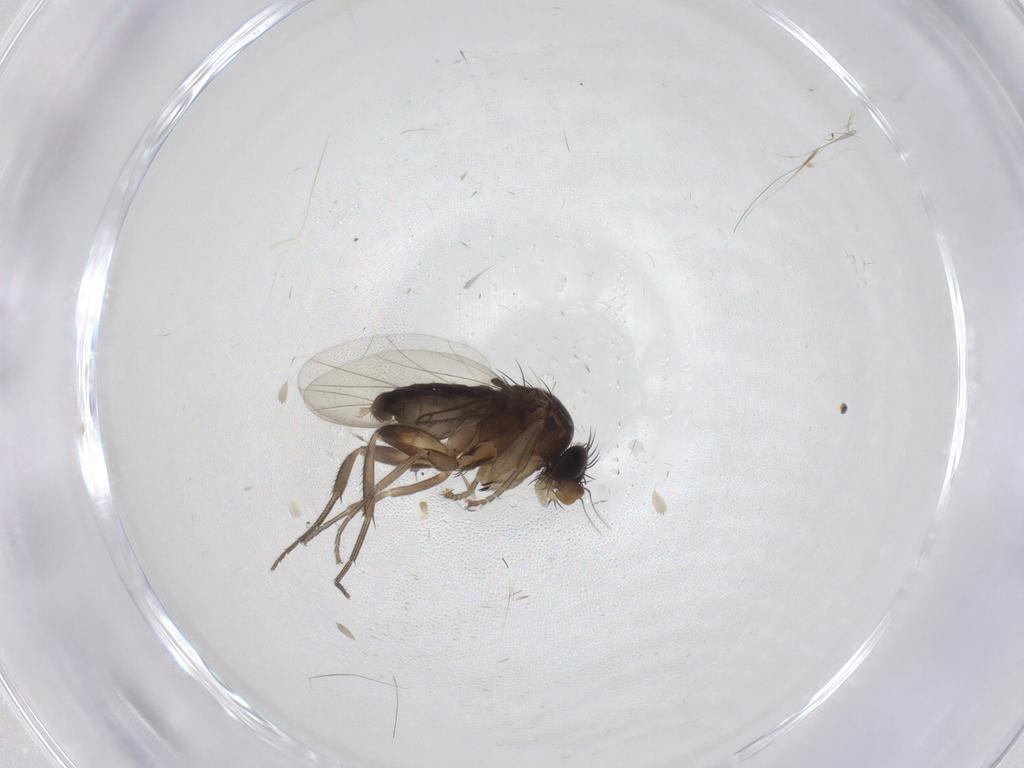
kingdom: Animalia
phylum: Arthropoda
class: Insecta
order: Diptera
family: Phoridae
